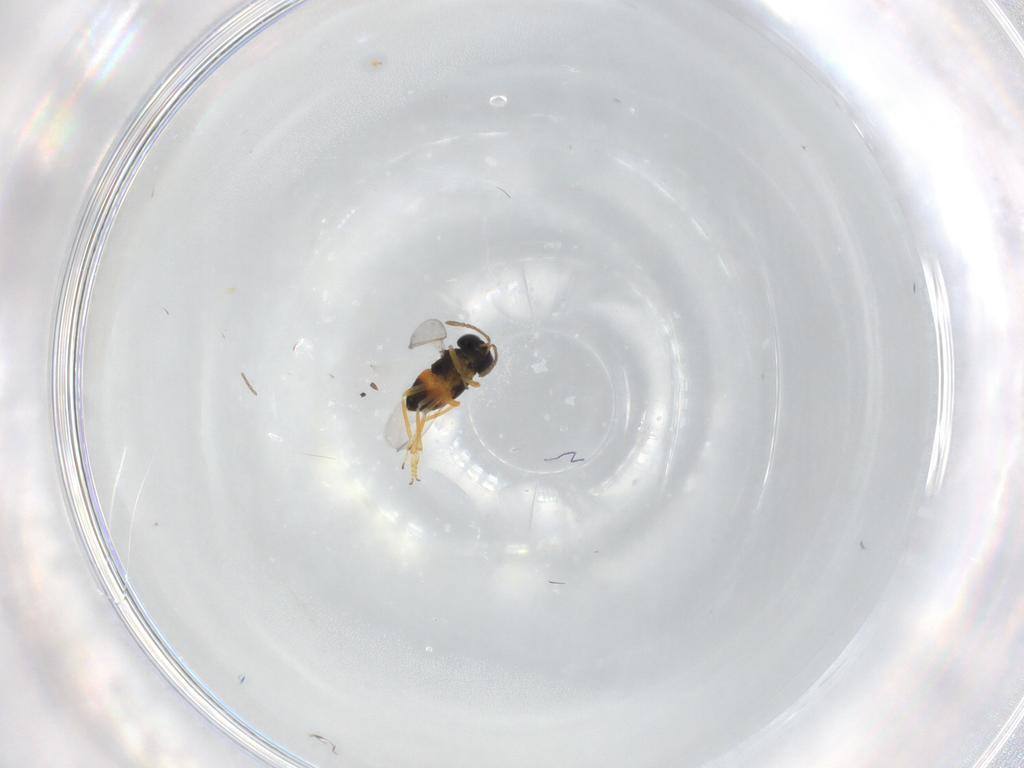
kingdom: Animalia
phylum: Arthropoda
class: Insecta
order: Hymenoptera
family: Encyrtidae
